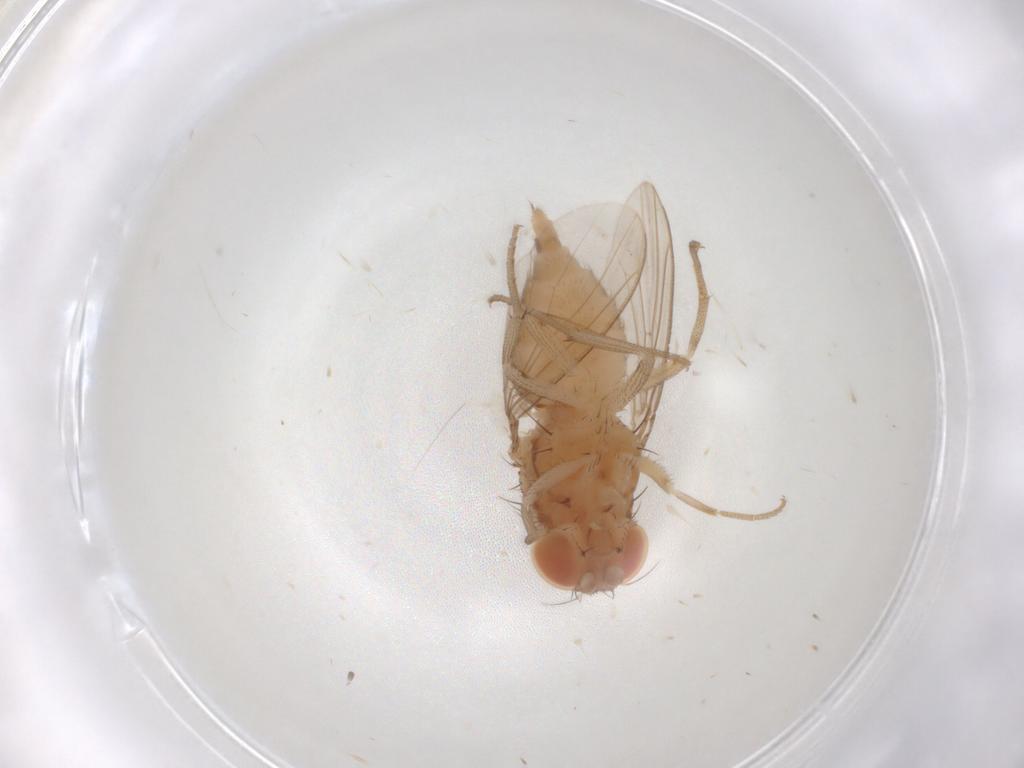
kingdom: Animalia
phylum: Arthropoda
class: Insecta
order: Diptera
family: Drosophilidae
